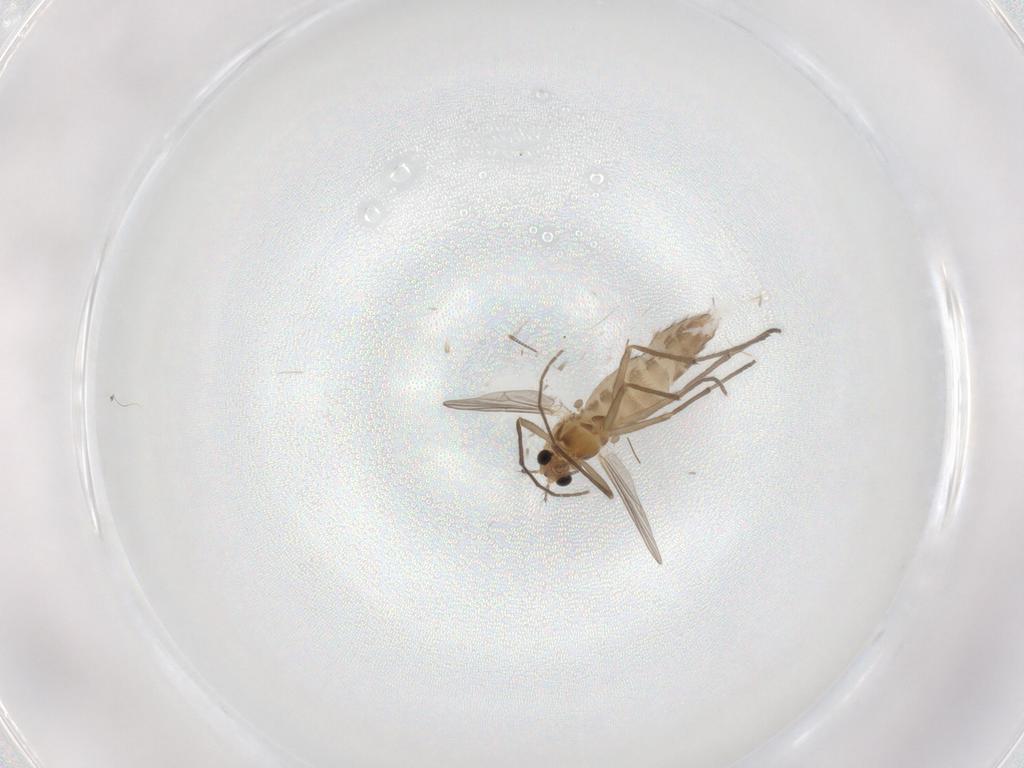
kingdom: Animalia
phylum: Arthropoda
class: Insecta
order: Diptera
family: Chironomidae
